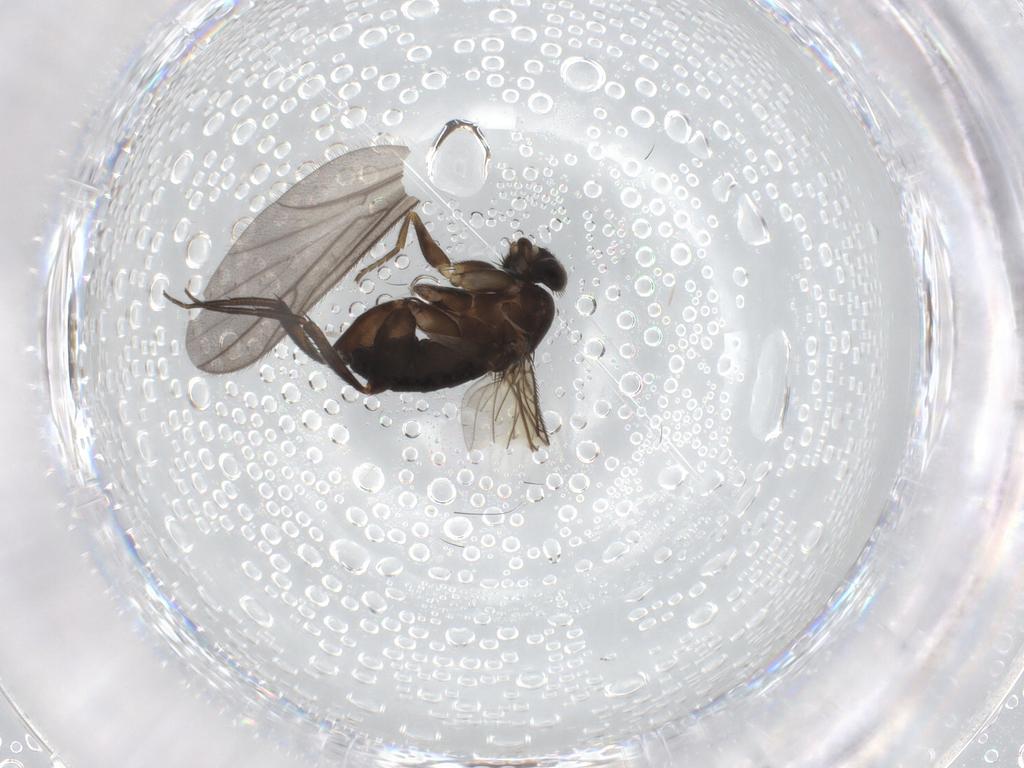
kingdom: Animalia
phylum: Arthropoda
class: Insecta
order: Diptera
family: Phoridae
